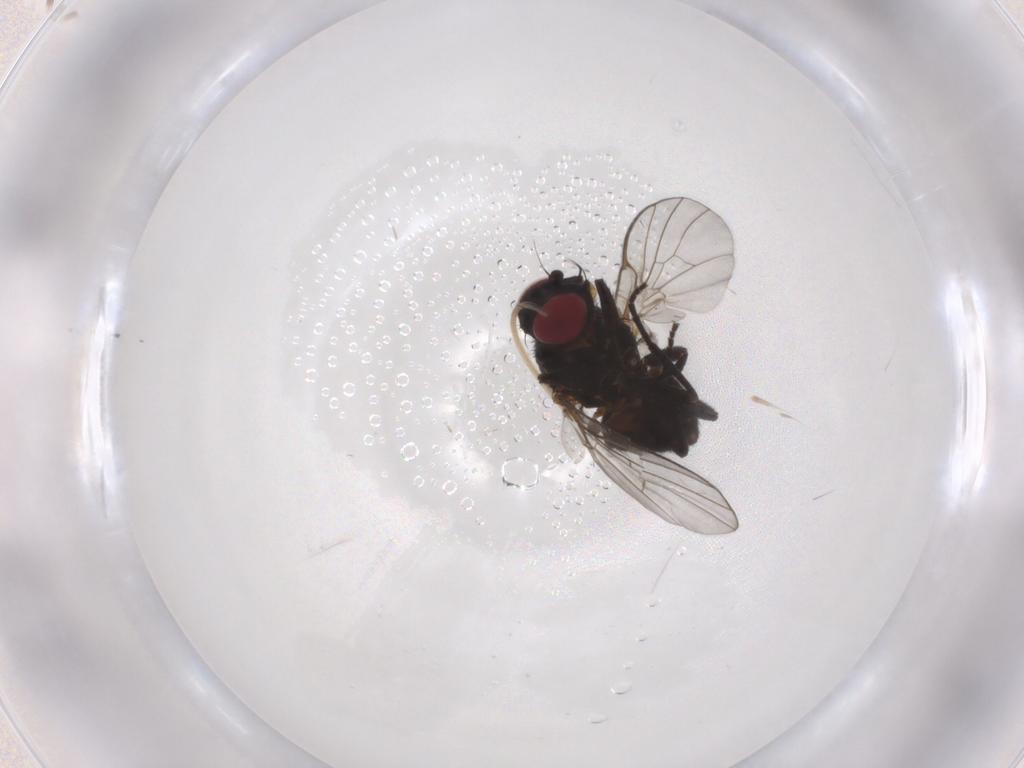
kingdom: Animalia
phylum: Arthropoda
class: Insecta
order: Diptera
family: Agromyzidae
